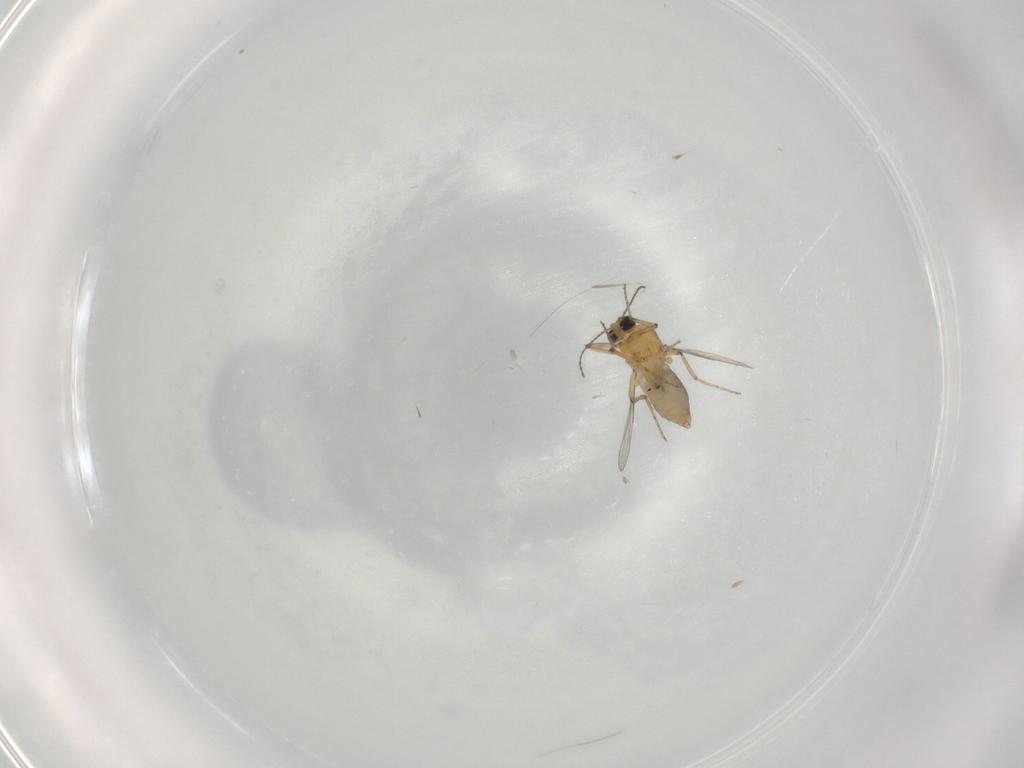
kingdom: Animalia
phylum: Arthropoda
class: Insecta
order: Diptera
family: Ceratopogonidae
